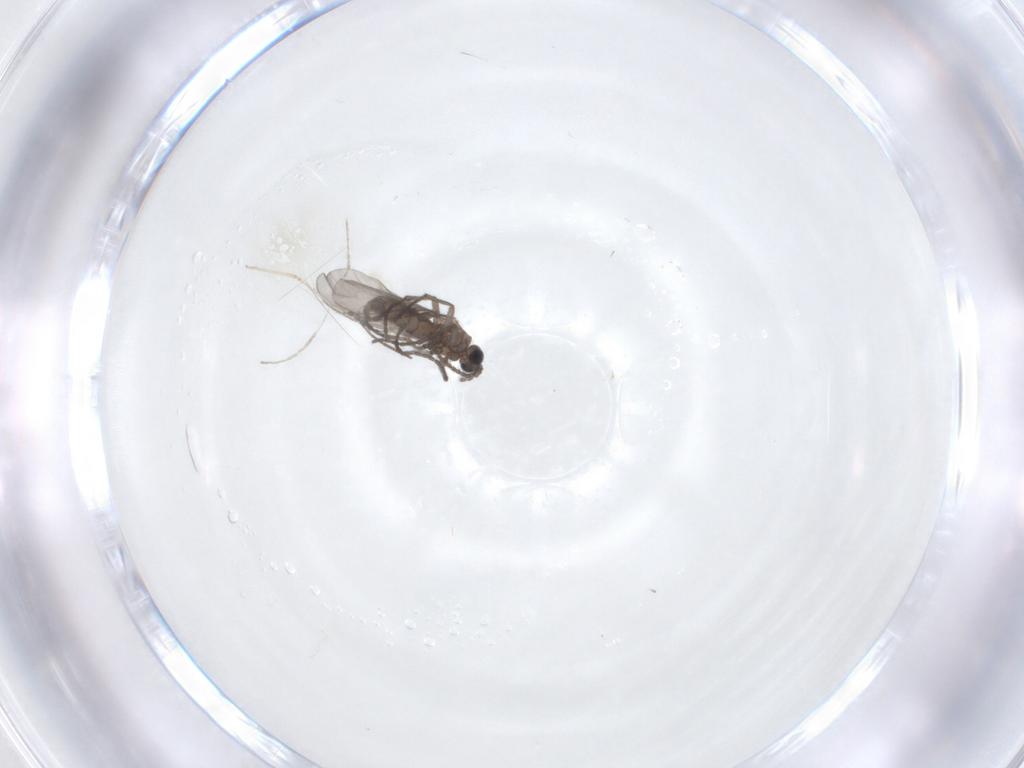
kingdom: Animalia
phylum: Arthropoda
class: Insecta
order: Diptera
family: Sciaridae
